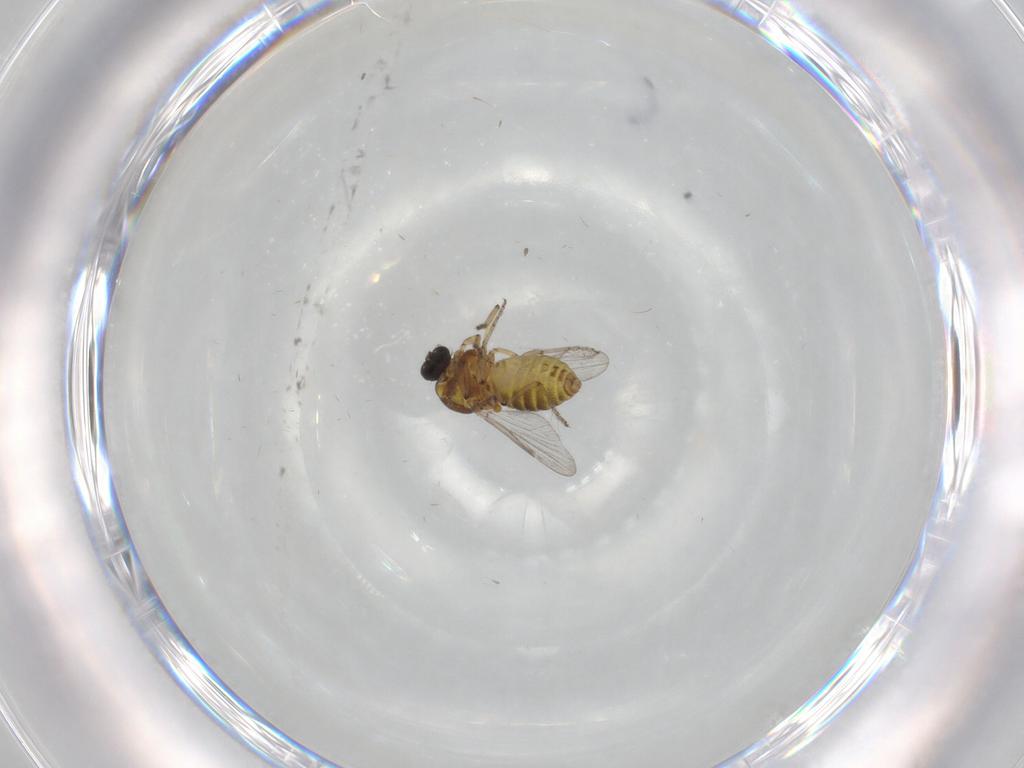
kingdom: Animalia
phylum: Arthropoda
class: Insecta
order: Diptera
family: Ceratopogonidae
